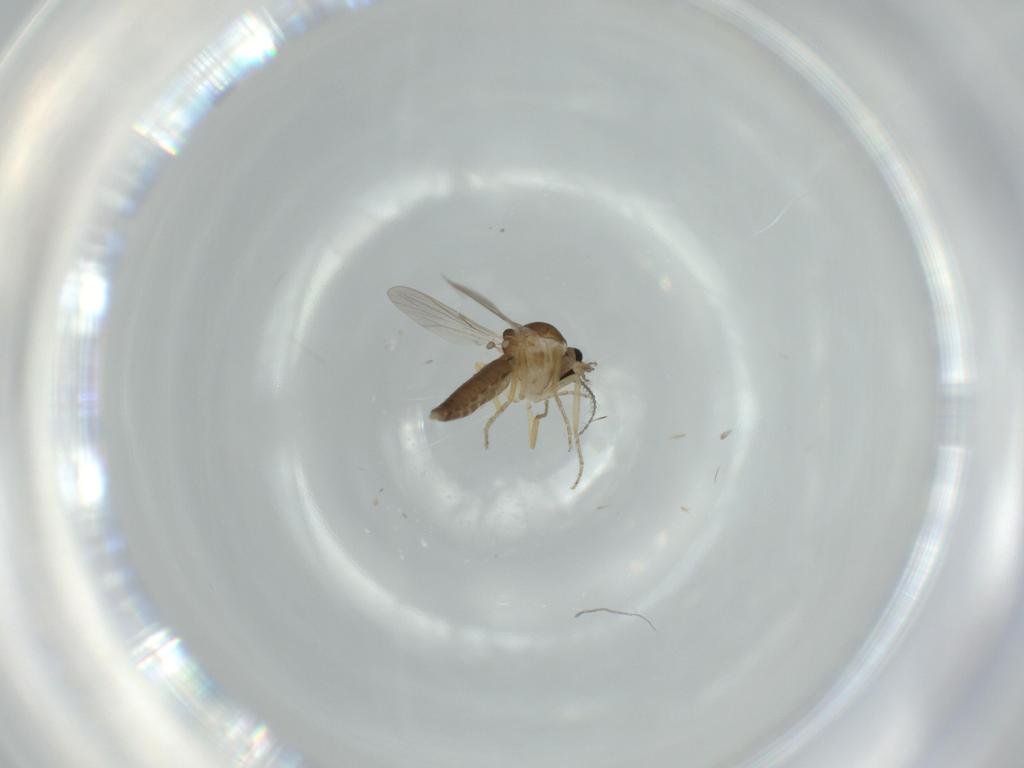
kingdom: Animalia
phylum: Arthropoda
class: Insecta
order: Diptera
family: Ceratopogonidae
